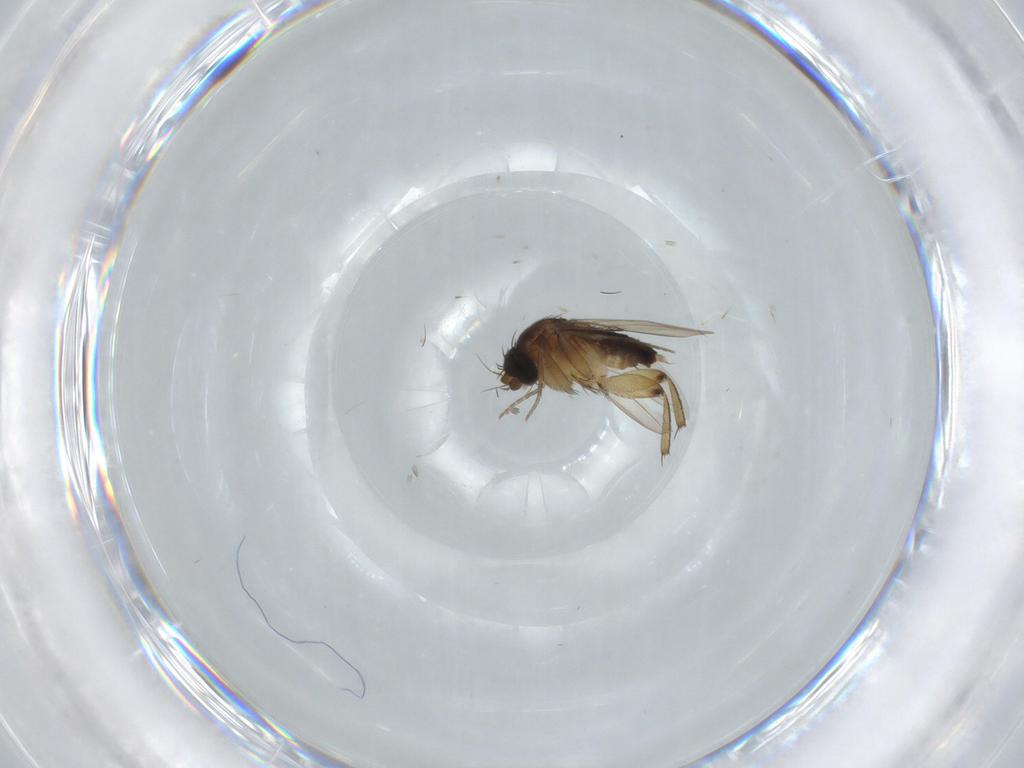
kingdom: Animalia
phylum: Arthropoda
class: Insecta
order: Diptera
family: Phoridae
